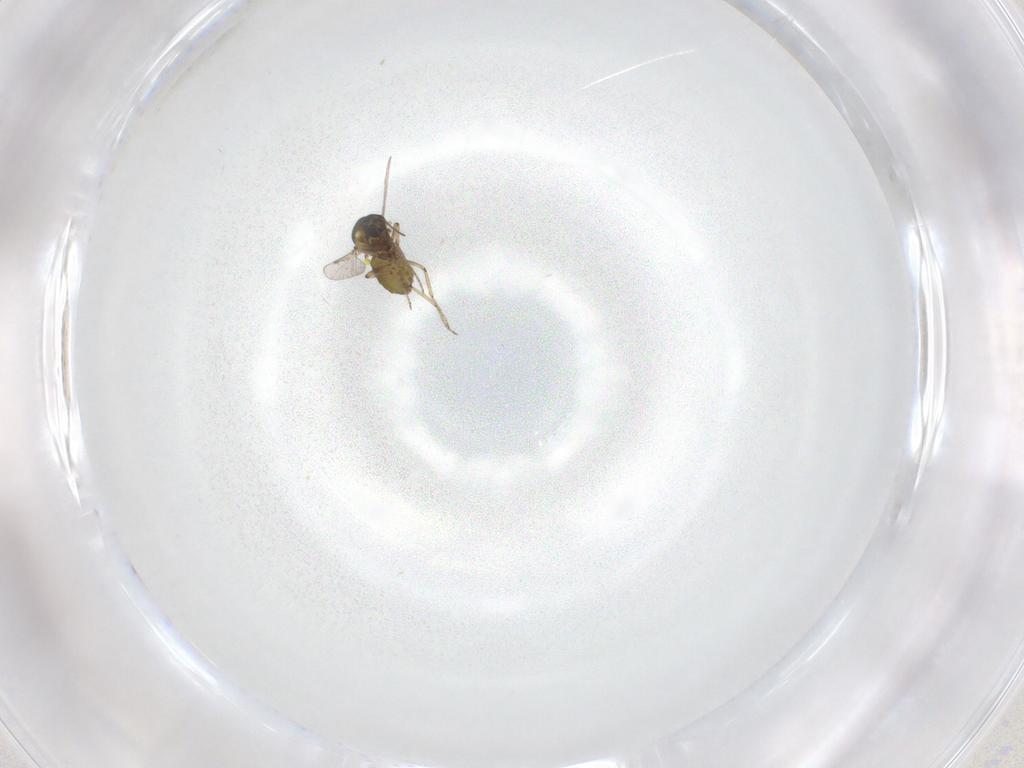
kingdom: Animalia
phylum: Arthropoda
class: Insecta
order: Diptera
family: Ceratopogonidae
